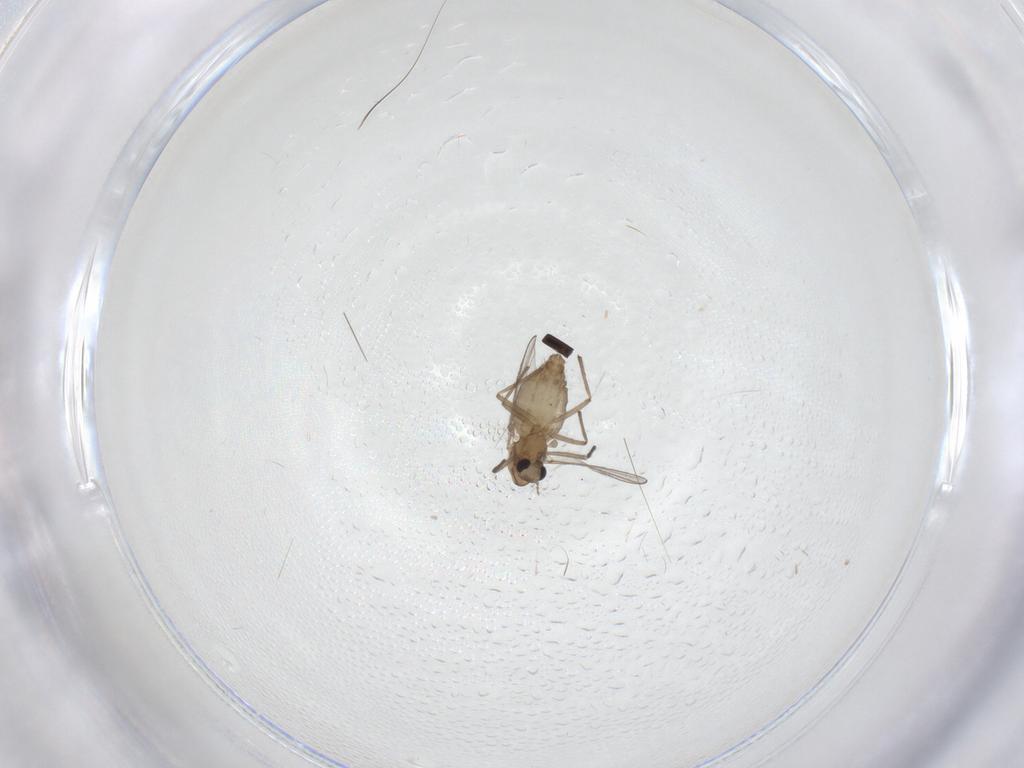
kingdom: Animalia
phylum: Arthropoda
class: Insecta
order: Diptera
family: Chironomidae
